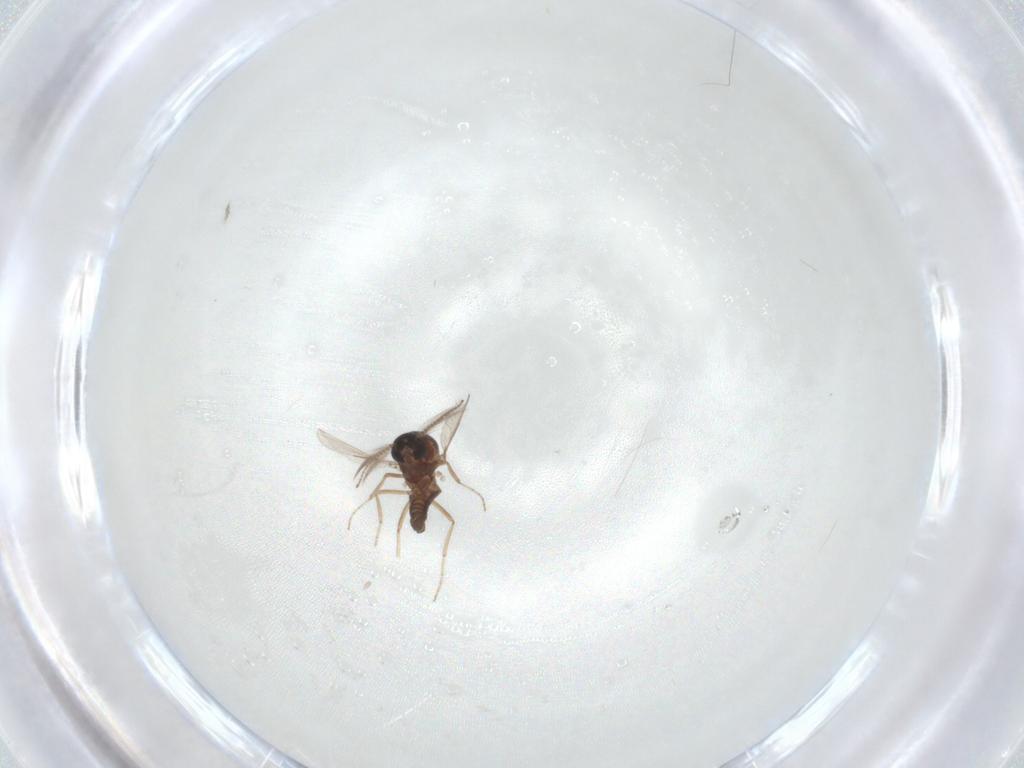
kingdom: Animalia
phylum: Arthropoda
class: Insecta
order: Diptera
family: Ceratopogonidae
